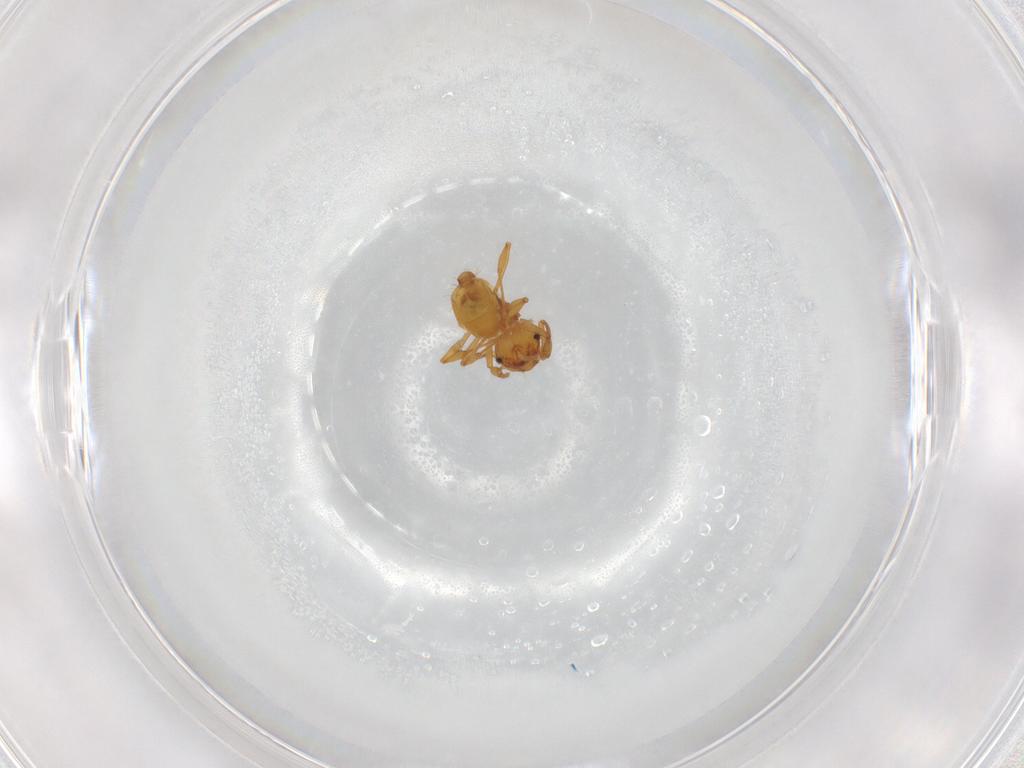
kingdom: Animalia
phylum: Arthropoda
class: Insecta
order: Hymenoptera
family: Formicidae
